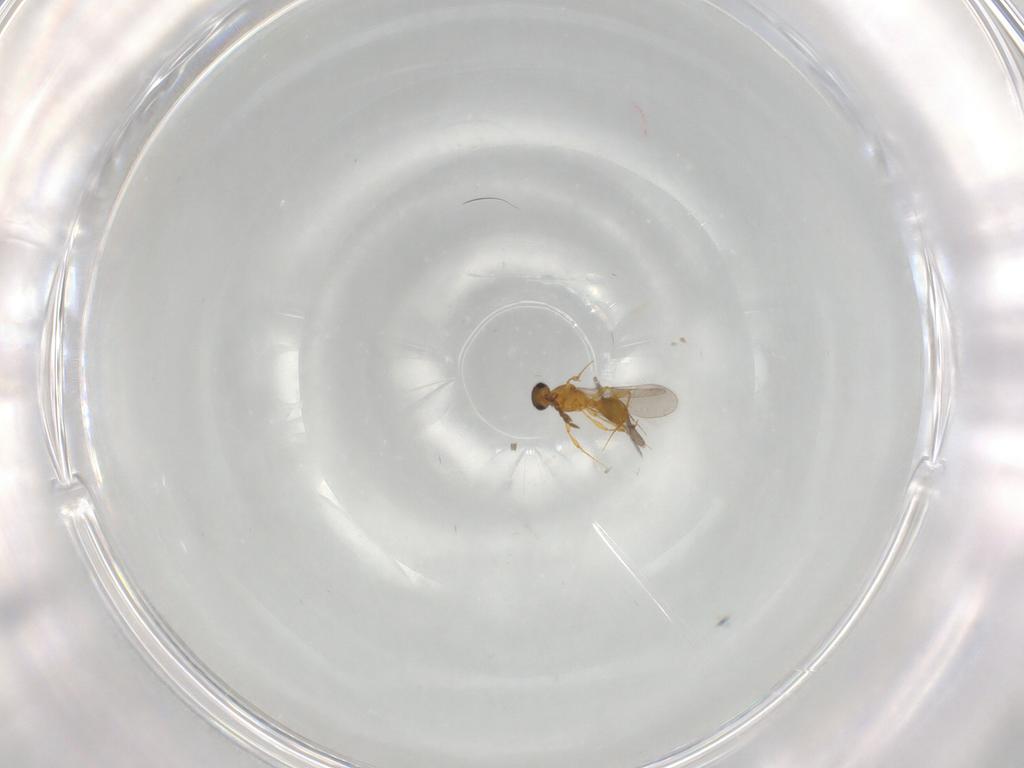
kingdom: Animalia
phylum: Arthropoda
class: Insecta
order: Hymenoptera
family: Platygastridae
